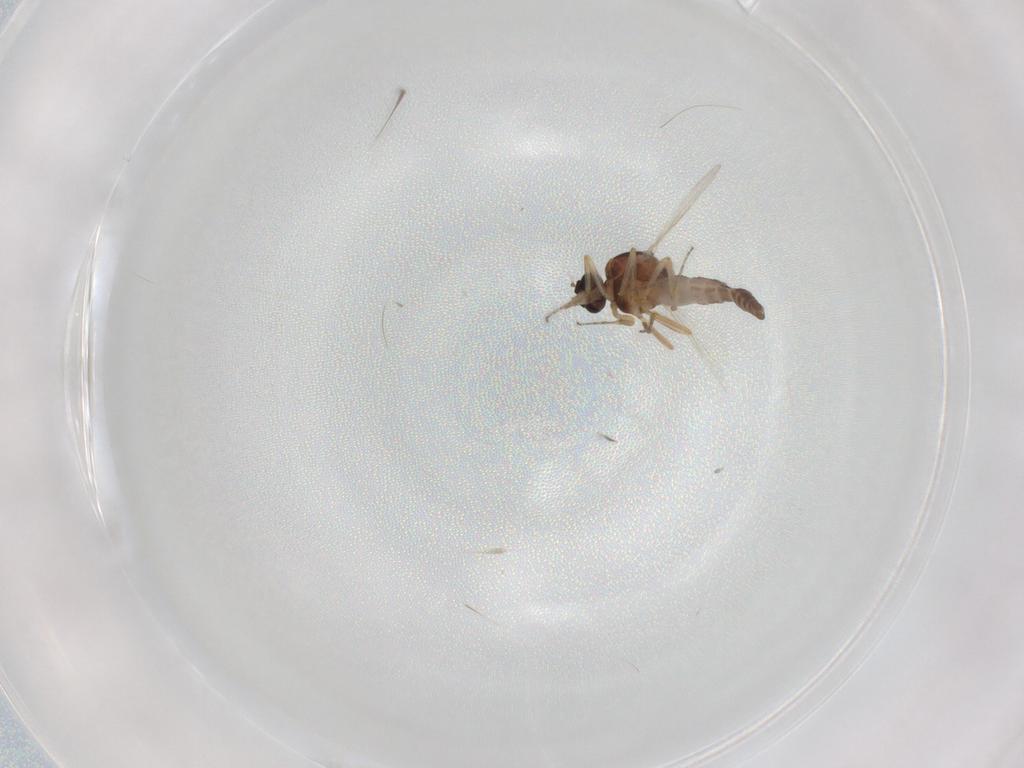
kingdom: Animalia
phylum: Arthropoda
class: Insecta
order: Diptera
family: Ceratopogonidae
